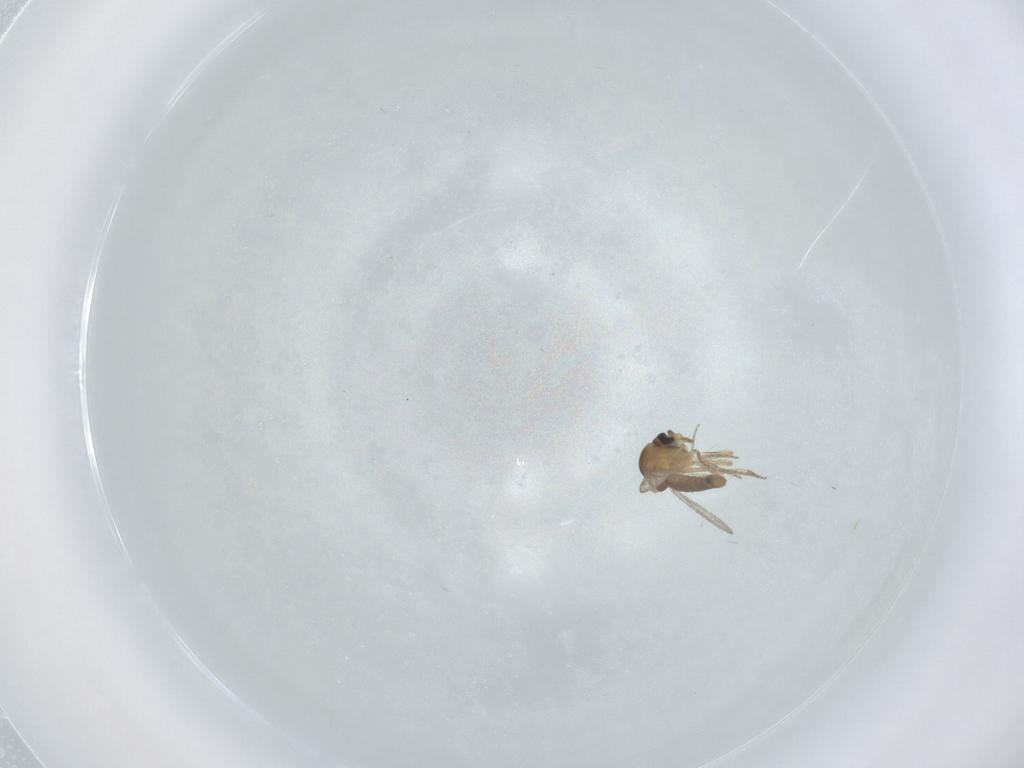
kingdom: Animalia
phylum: Arthropoda
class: Insecta
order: Diptera
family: Ceratopogonidae
